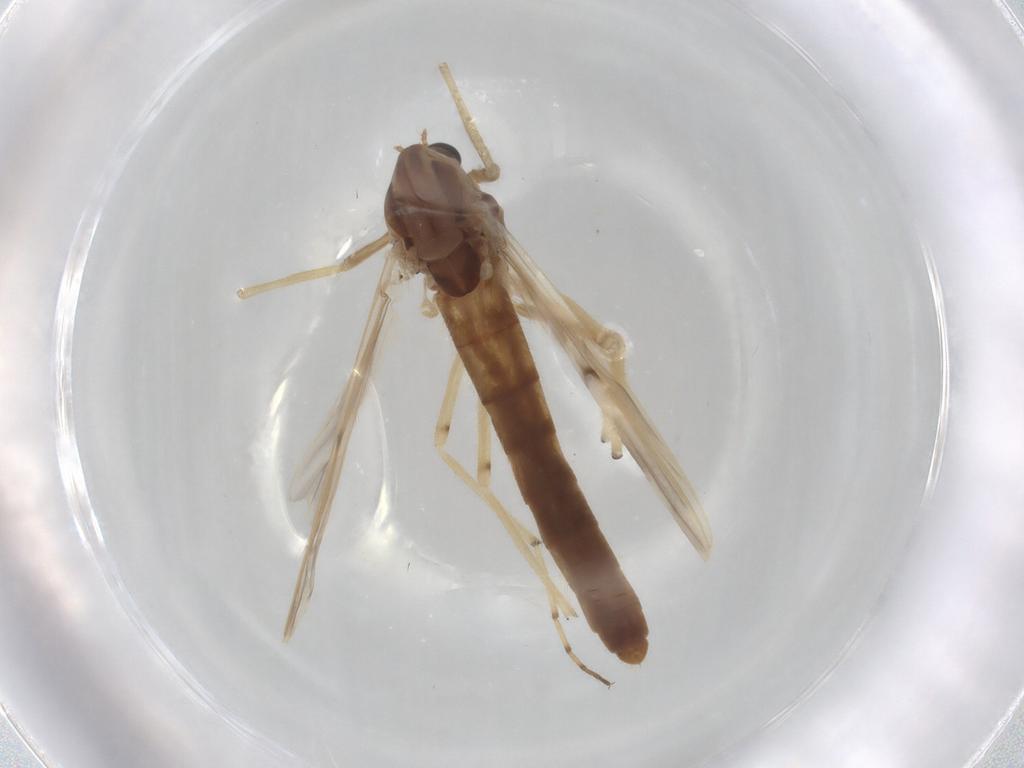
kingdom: Animalia
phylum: Arthropoda
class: Insecta
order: Diptera
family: Chironomidae
